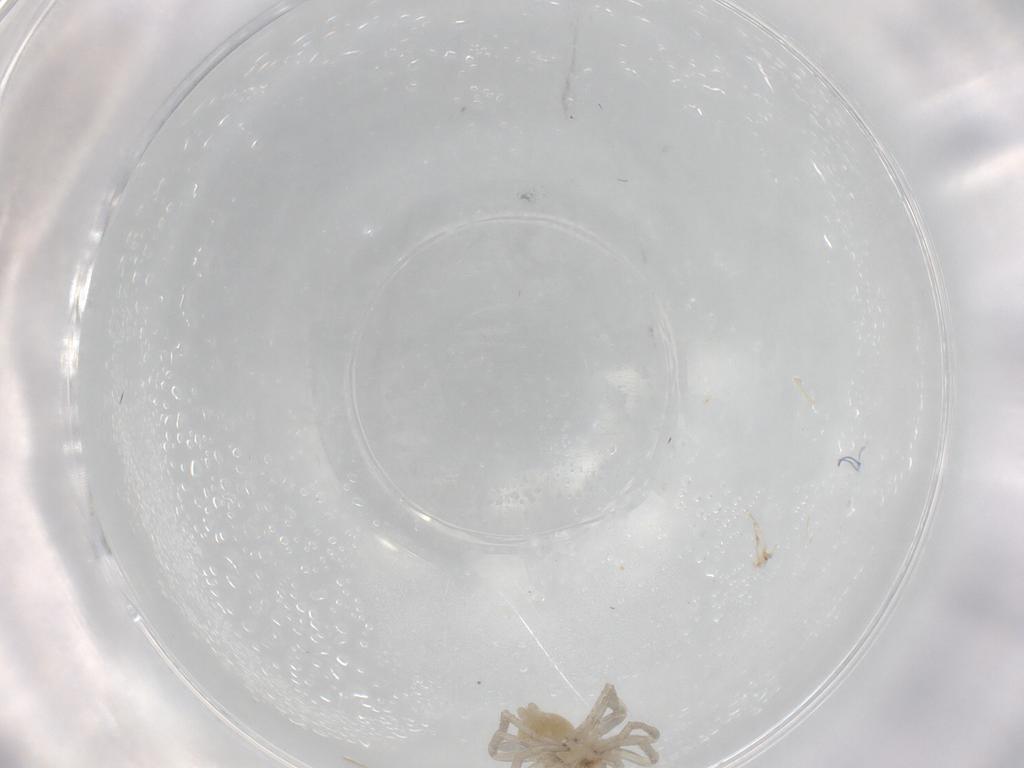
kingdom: Animalia
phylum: Arthropoda
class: Arachnida
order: Araneae
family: Clubionidae
